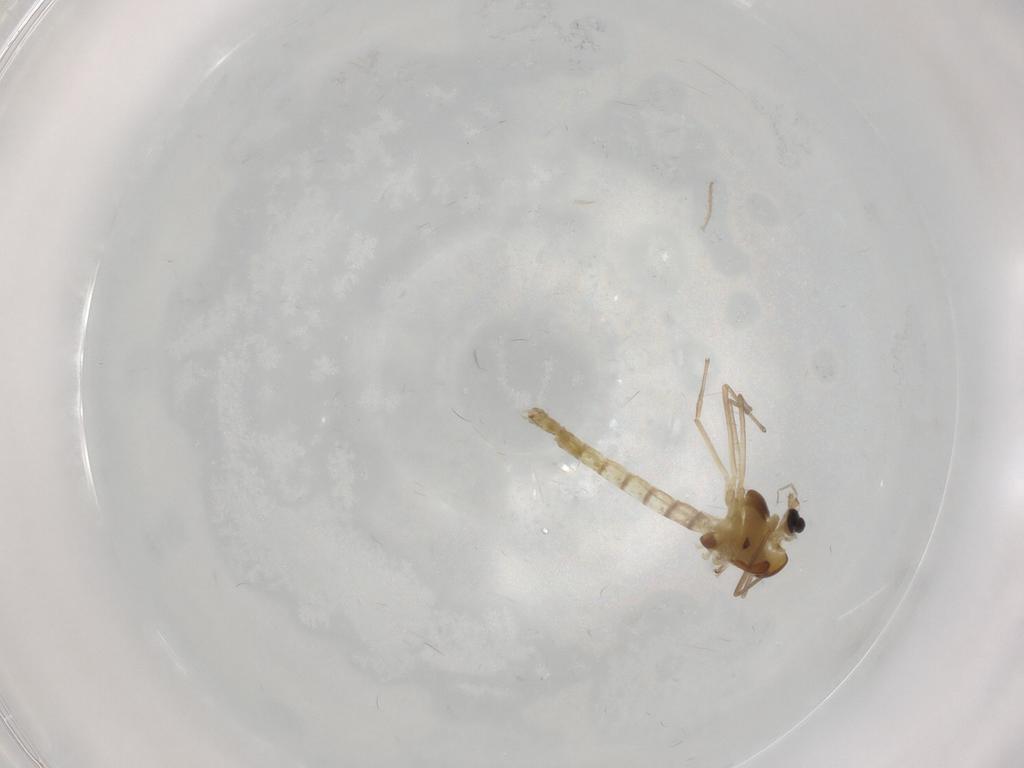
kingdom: Animalia
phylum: Arthropoda
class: Insecta
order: Diptera
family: Chironomidae
